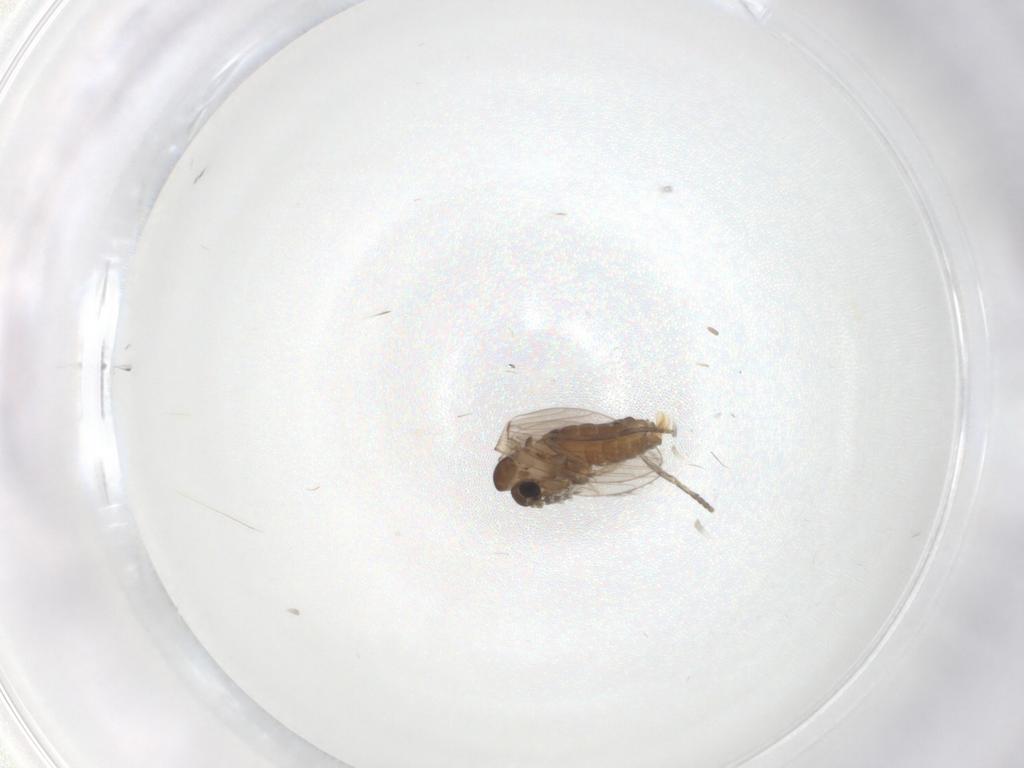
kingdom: Animalia
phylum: Arthropoda
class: Insecta
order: Diptera
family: Psychodidae
